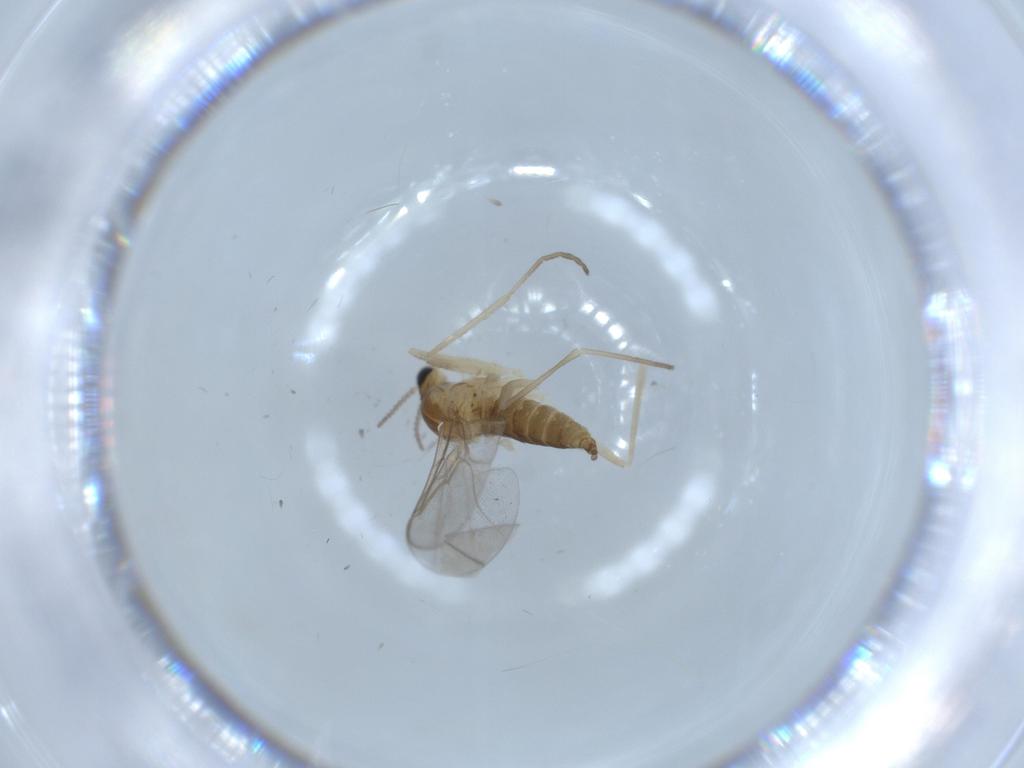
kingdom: Animalia
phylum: Arthropoda
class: Insecta
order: Diptera
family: Cecidomyiidae
